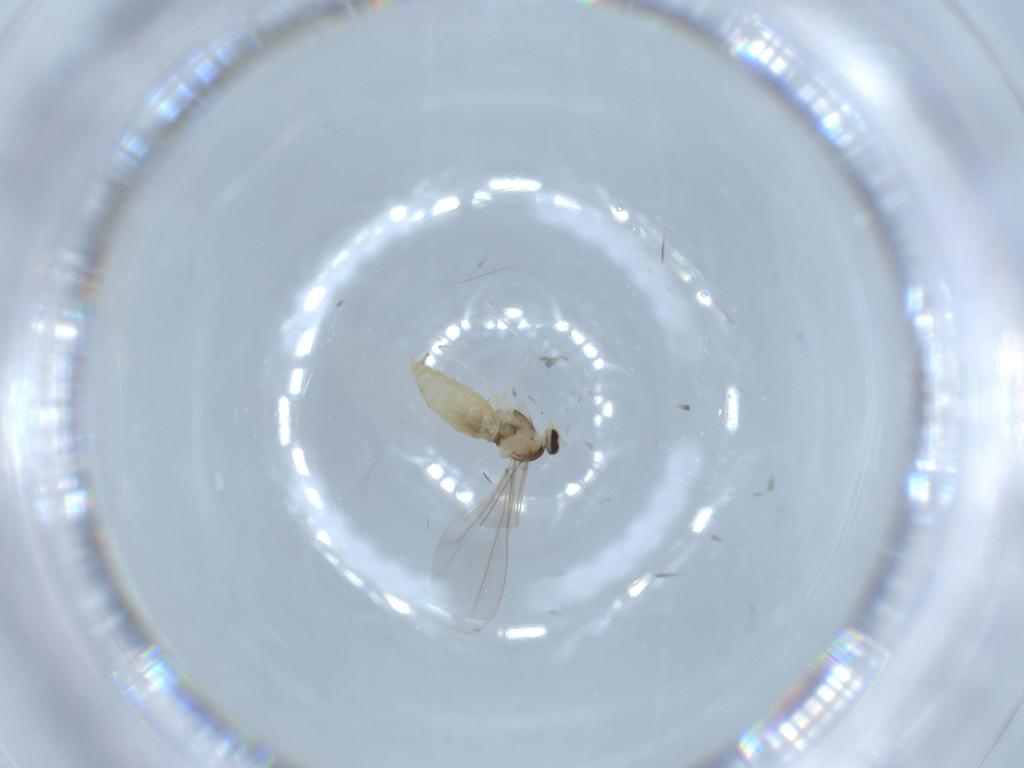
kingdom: Animalia
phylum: Arthropoda
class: Insecta
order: Diptera
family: Cecidomyiidae
